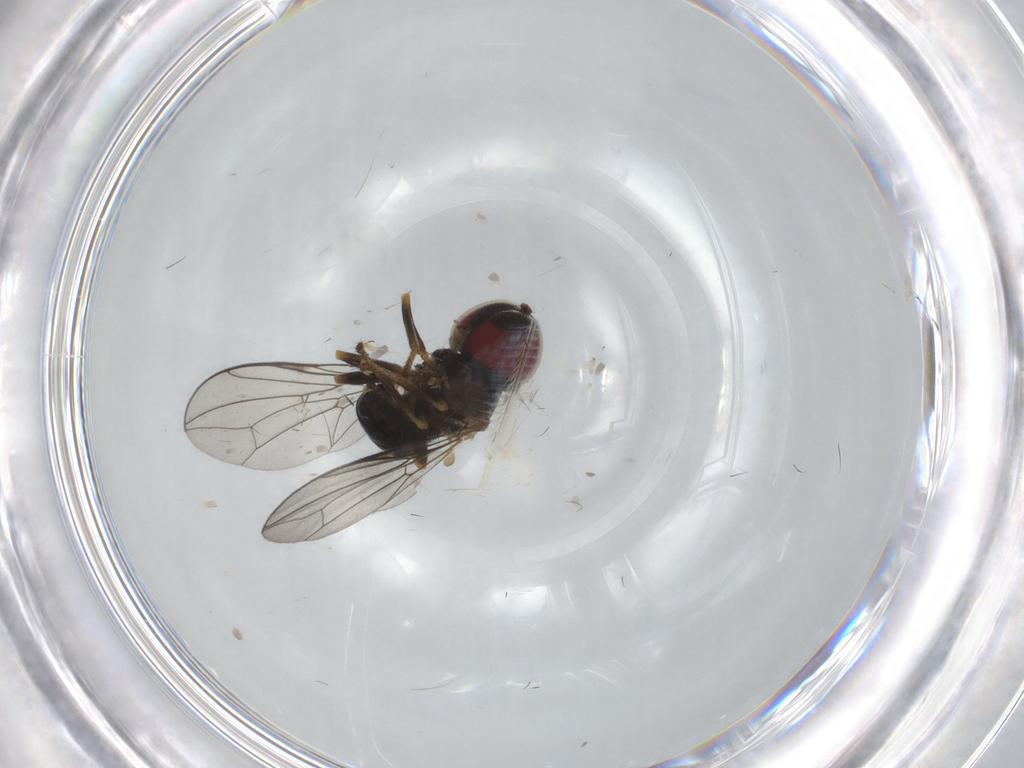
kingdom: Animalia
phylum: Arthropoda
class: Insecta
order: Diptera
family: Pipunculidae
